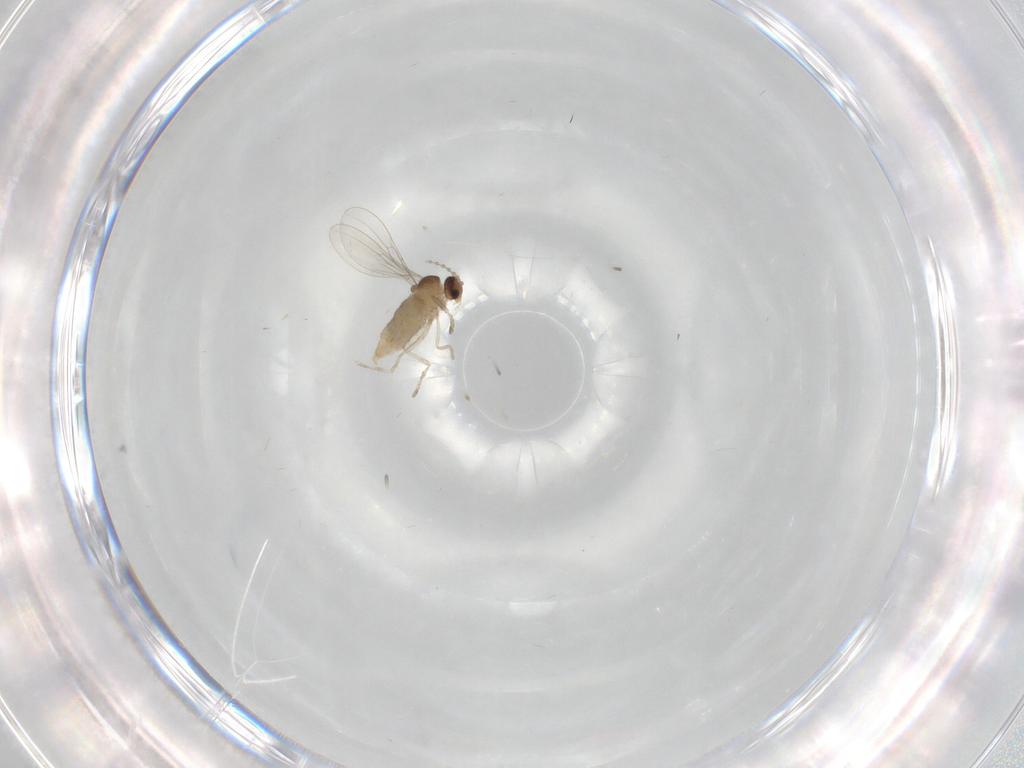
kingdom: Animalia
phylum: Arthropoda
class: Insecta
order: Diptera
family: Cecidomyiidae
